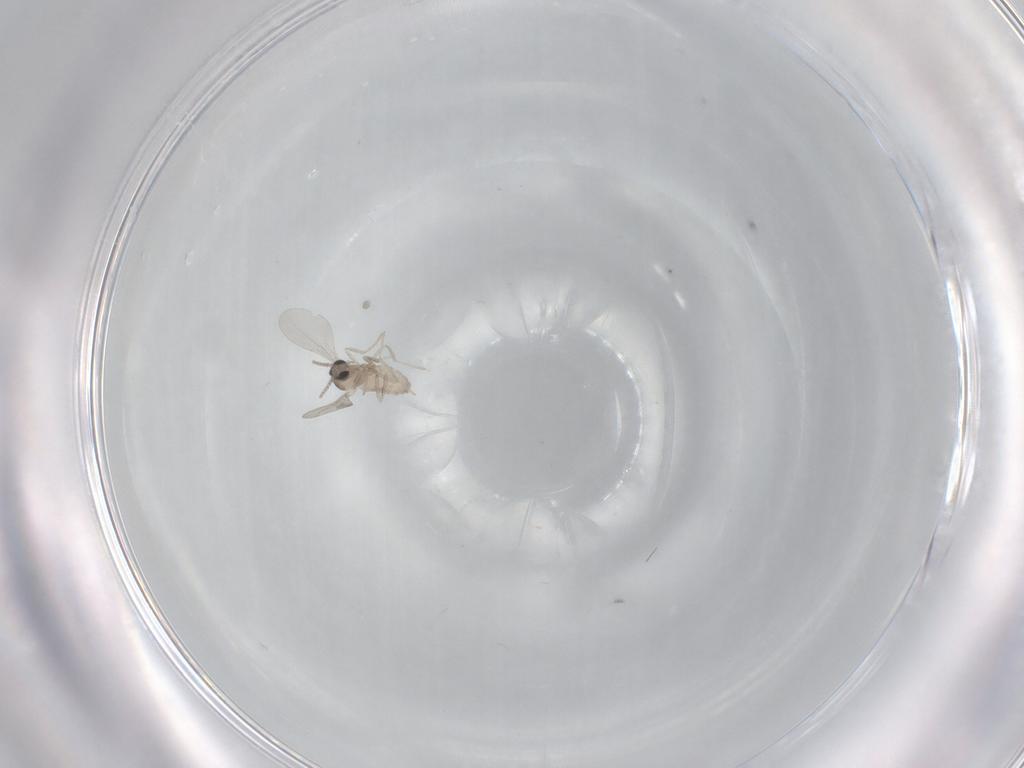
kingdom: Animalia
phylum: Arthropoda
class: Insecta
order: Diptera
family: Cecidomyiidae
